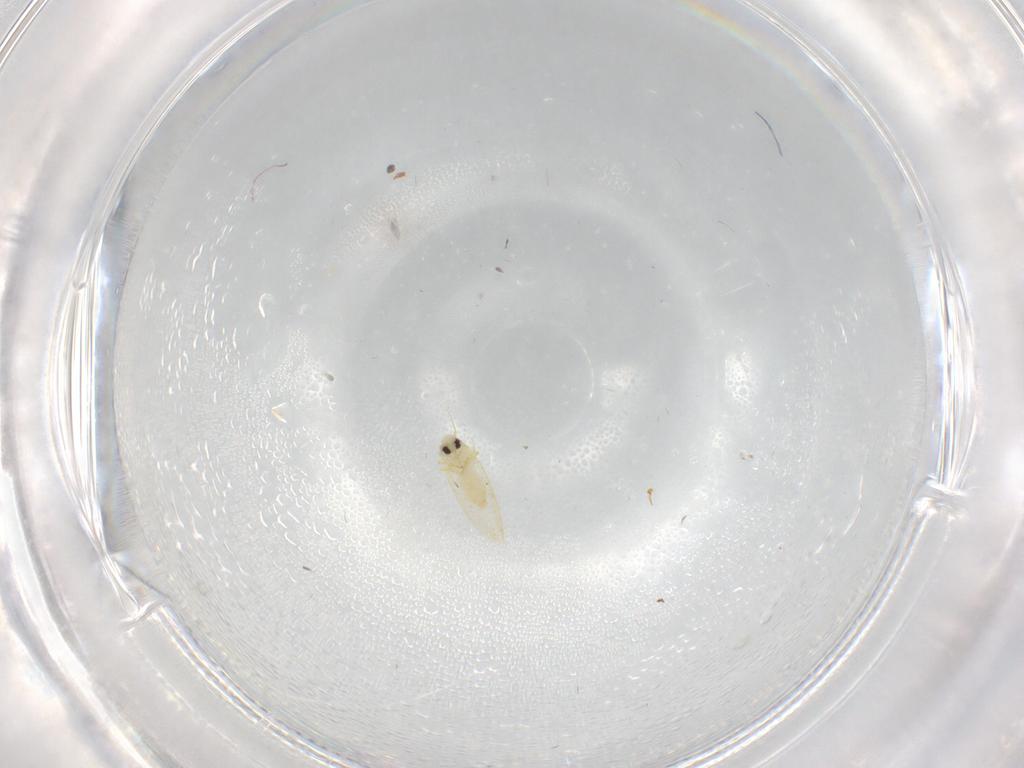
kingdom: Animalia
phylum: Arthropoda
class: Insecta
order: Hemiptera
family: Aleyrodidae
